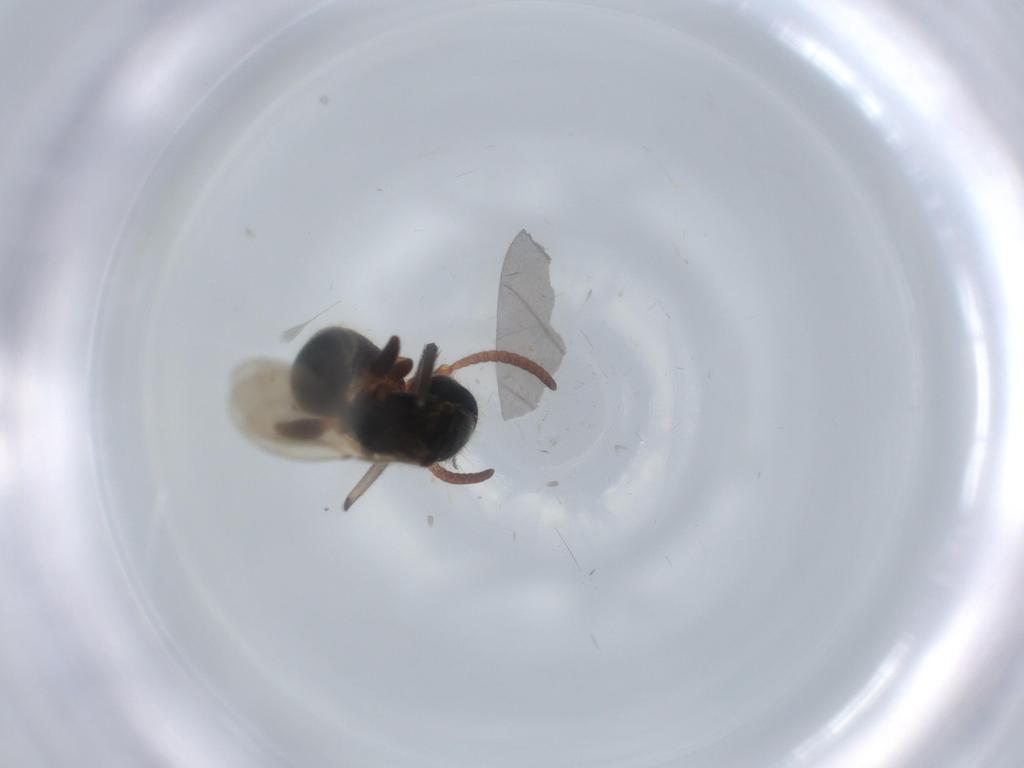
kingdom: Animalia
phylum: Arthropoda
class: Insecta
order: Hymenoptera
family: Bethylidae
